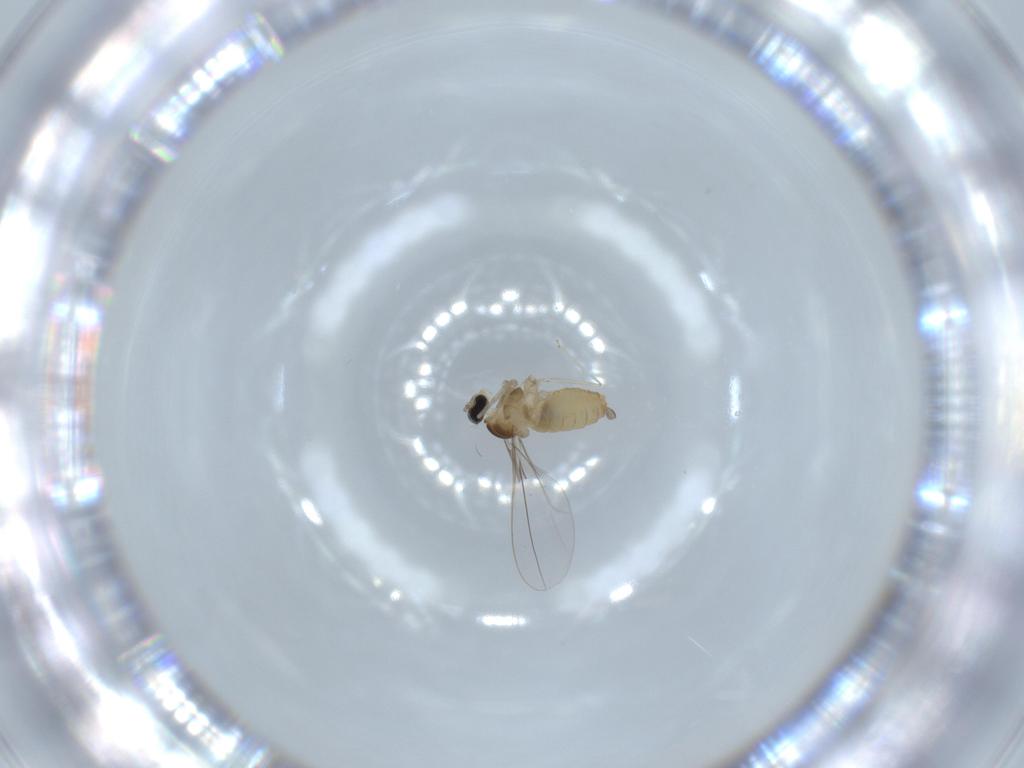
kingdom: Animalia
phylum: Arthropoda
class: Insecta
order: Diptera
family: Cecidomyiidae
